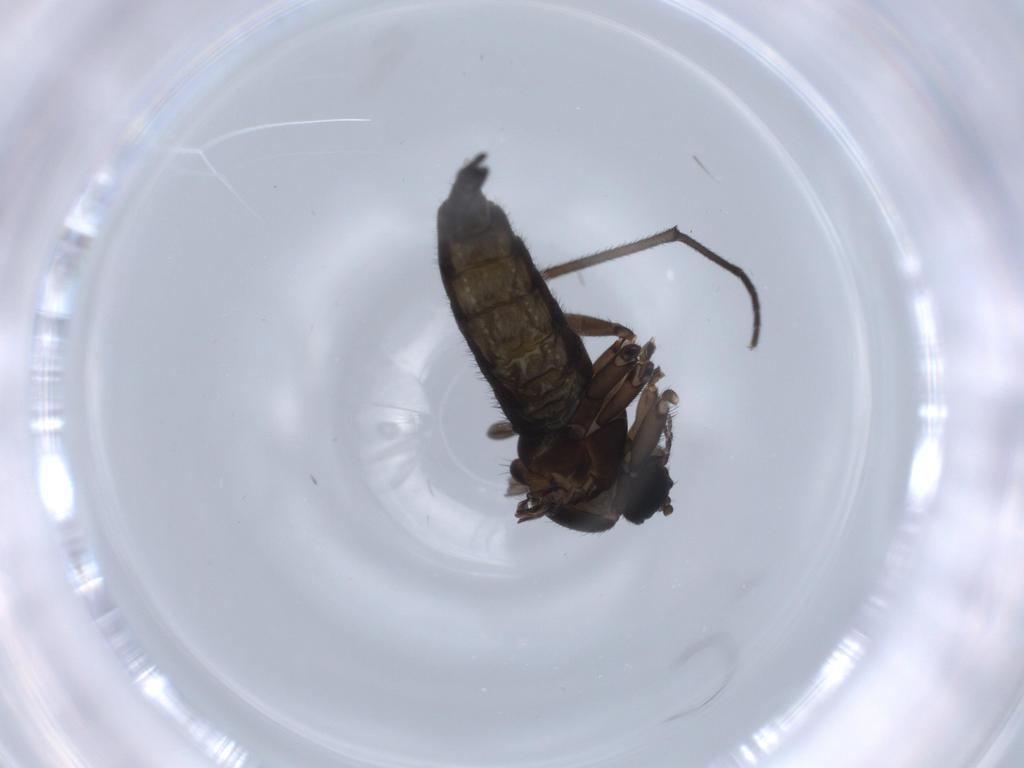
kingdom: Animalia
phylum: Arthropoda
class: Insecta
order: Diptera
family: Sciaridae
